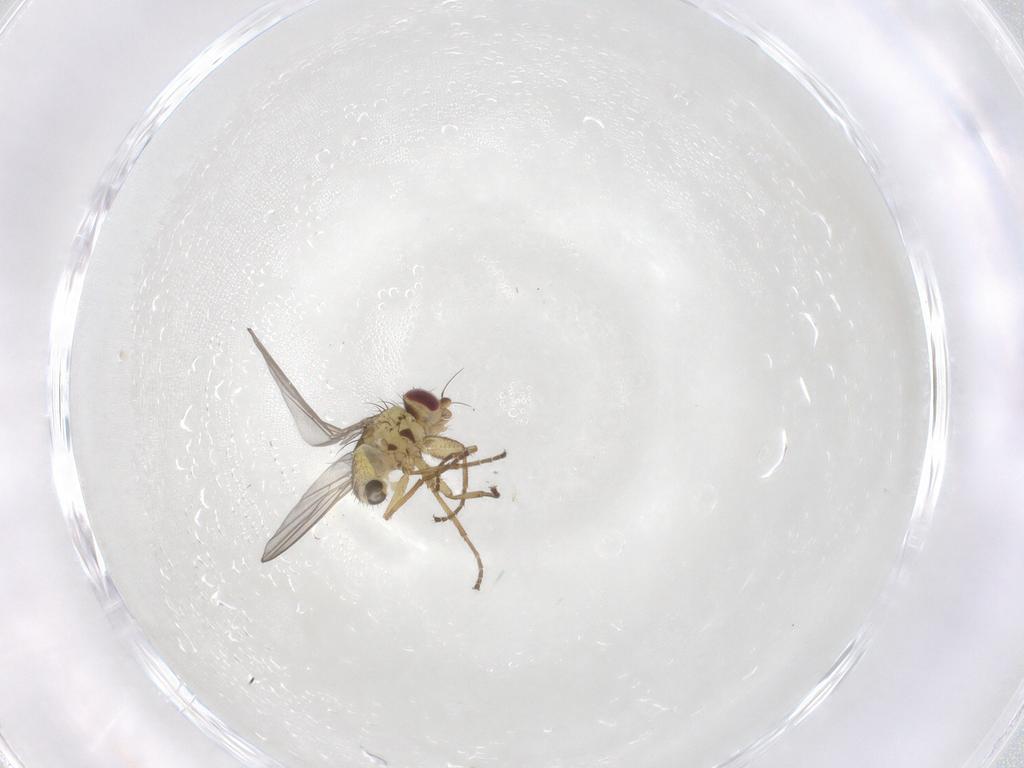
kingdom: Animalia
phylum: Arthropoda
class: Insecta
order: Diptera
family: Agromyzidae
